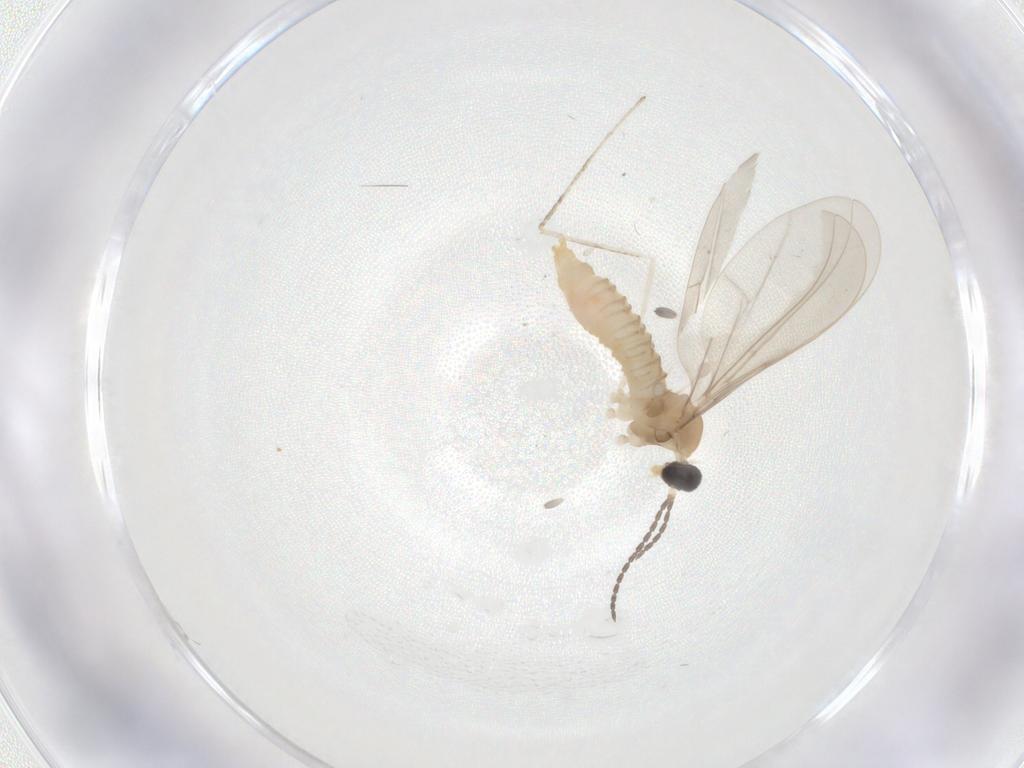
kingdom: Animalia
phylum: Arthropoda
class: Insecta
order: Diptera
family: Cecidomyiidae
